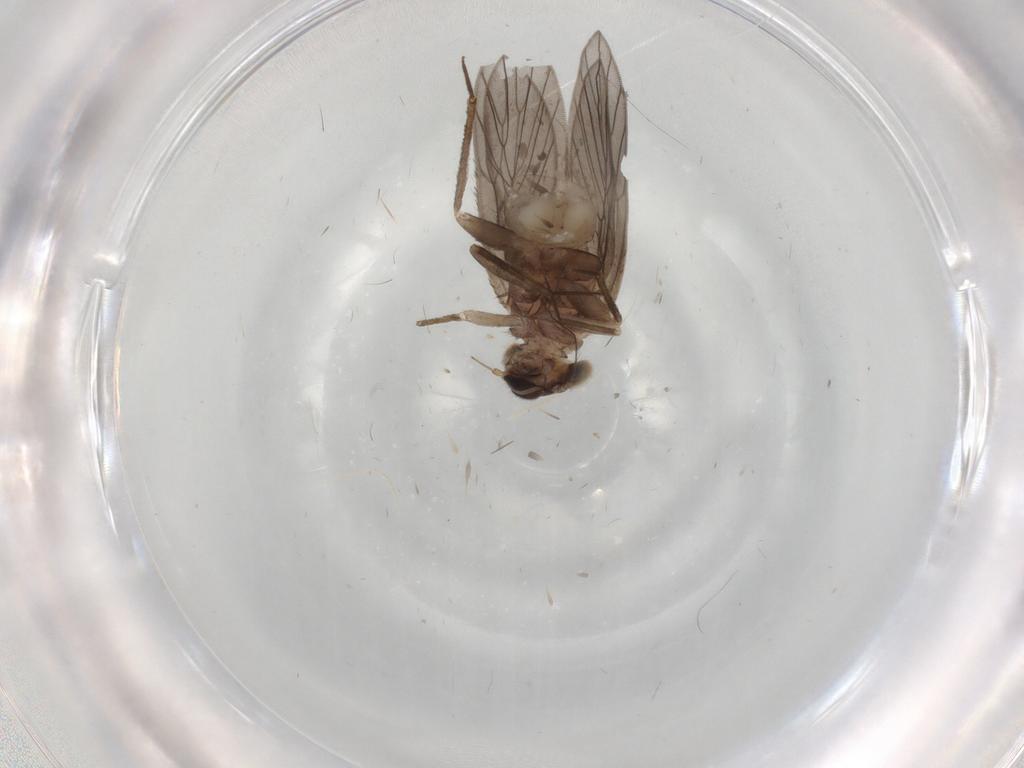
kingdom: Animalia
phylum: Arthropoda
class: Insecta
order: Psocodea
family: Lepidopsocidae
